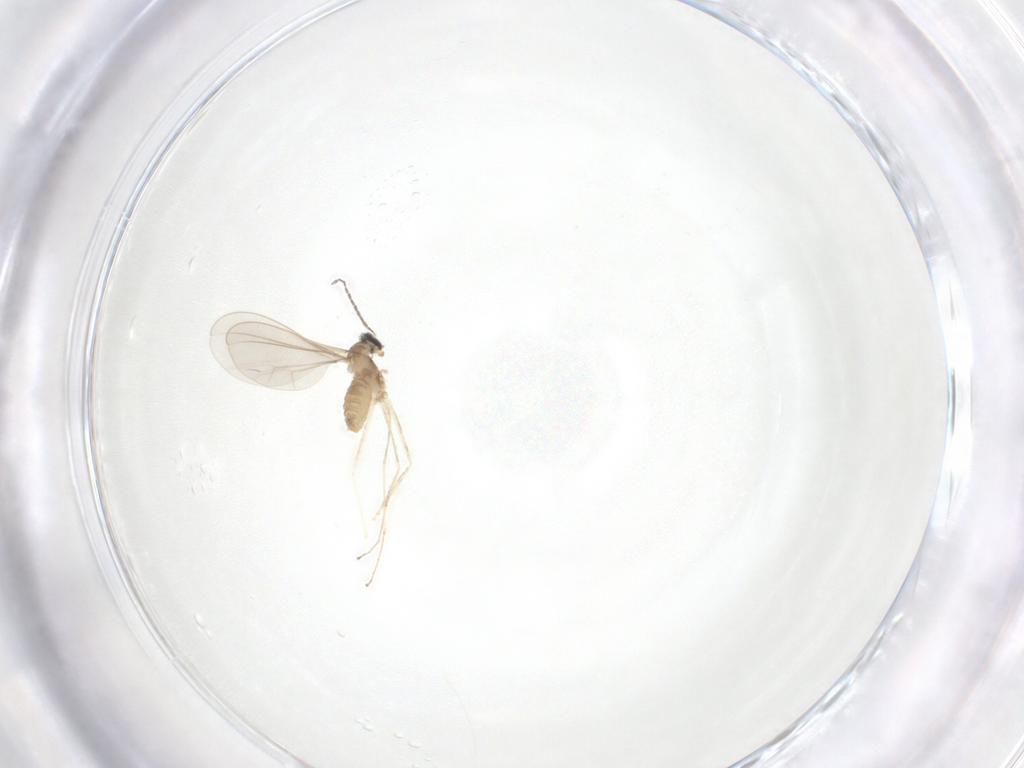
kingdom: Animalia
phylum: Arthropoda
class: Insecta
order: Diptera
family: Cecidomyiidae
